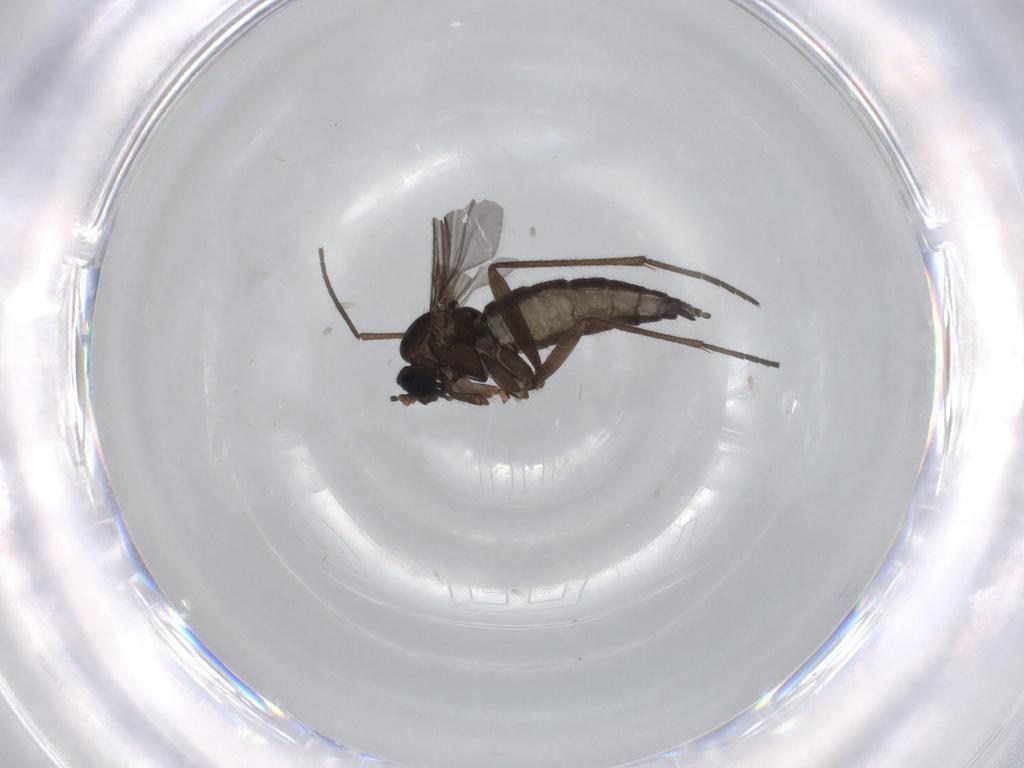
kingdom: Animalia
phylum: Arthropoda
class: Insecta
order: Diptera
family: Sciaridae
